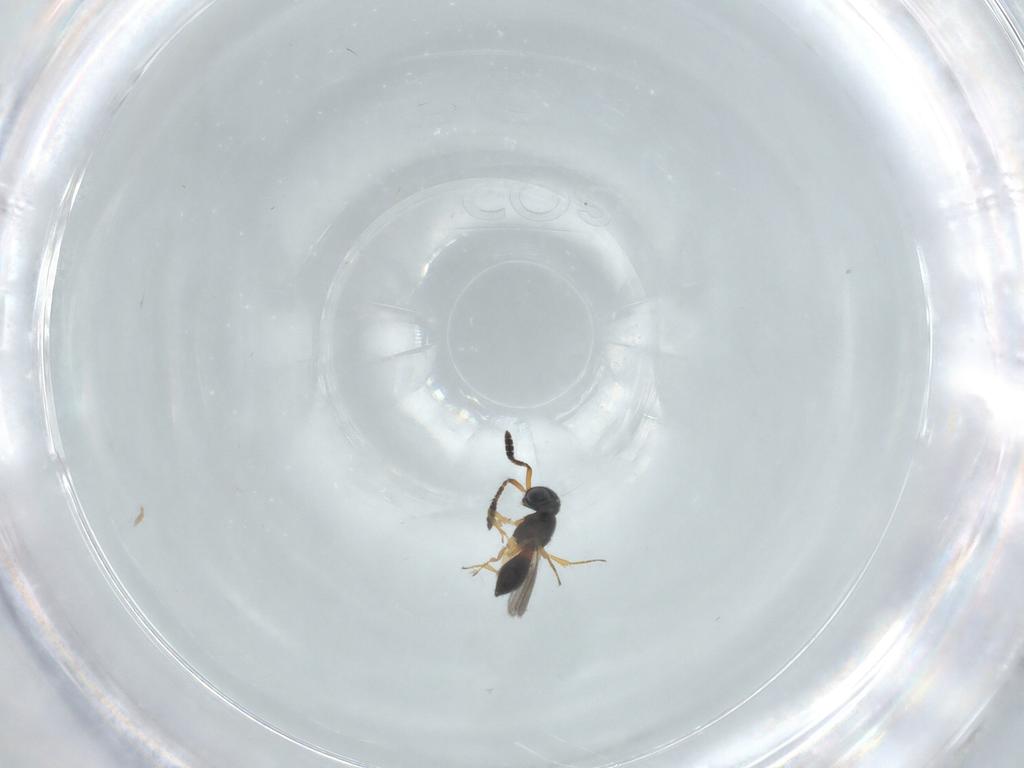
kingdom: Animalia
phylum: Arthropoda
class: Insecta
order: Hymenoptera
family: Scelionidae
